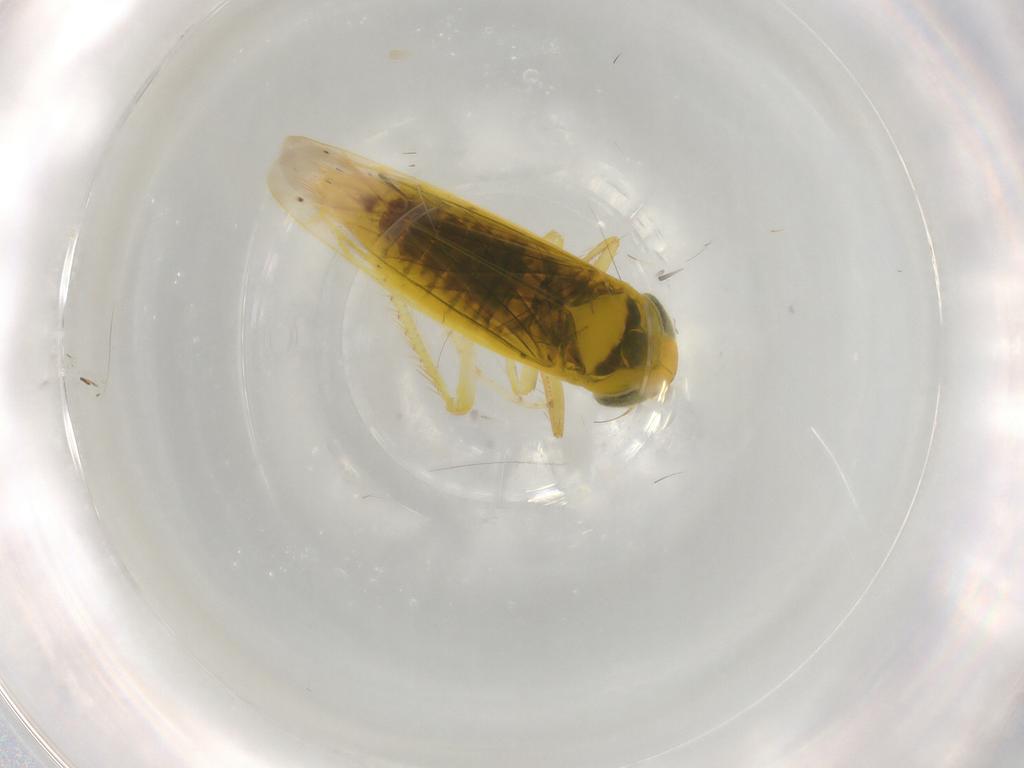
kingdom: Animalia
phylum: Arthropoda
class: Insecta
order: Hemiptera
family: Cicadellidae
